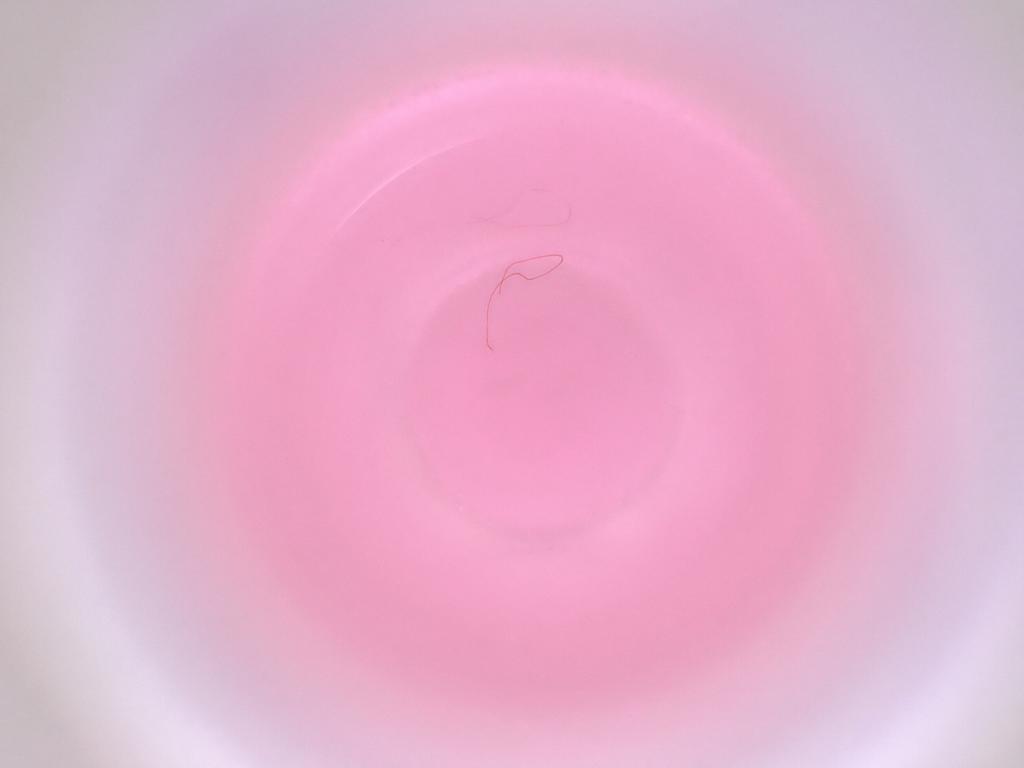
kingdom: Animalia
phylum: Arthropoda
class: Insecta
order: Diptera
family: Cecidomyiidae
